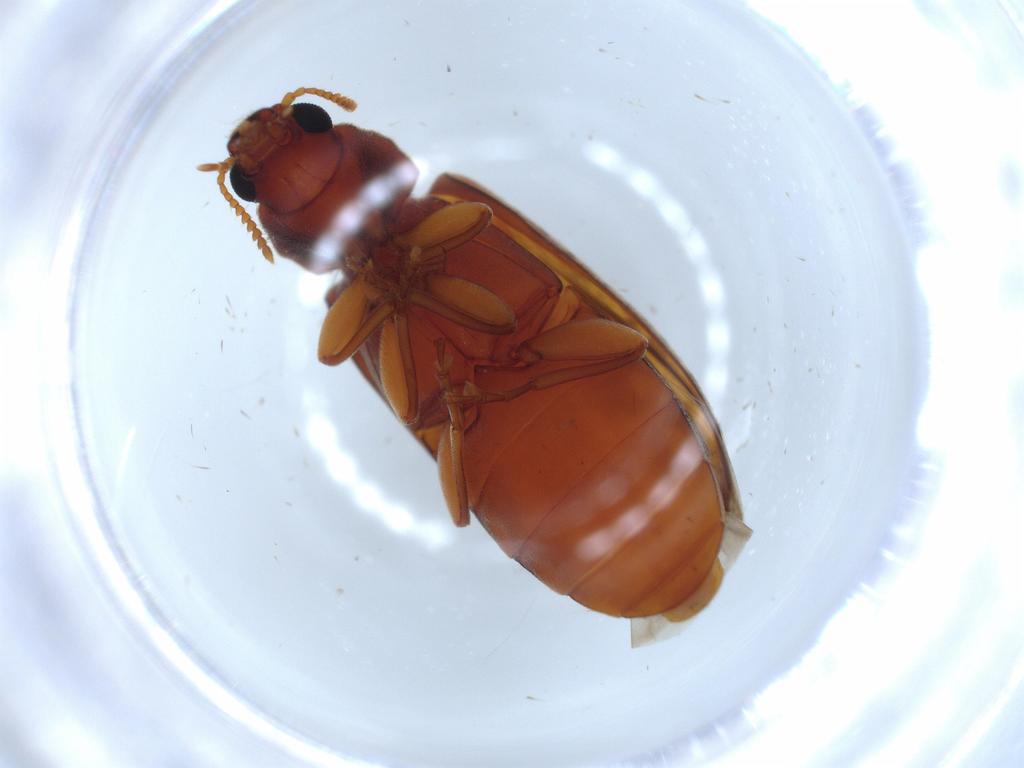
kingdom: Animalia
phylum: Arthropoda
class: Insecta
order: Coleoptera
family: Mycteridae
